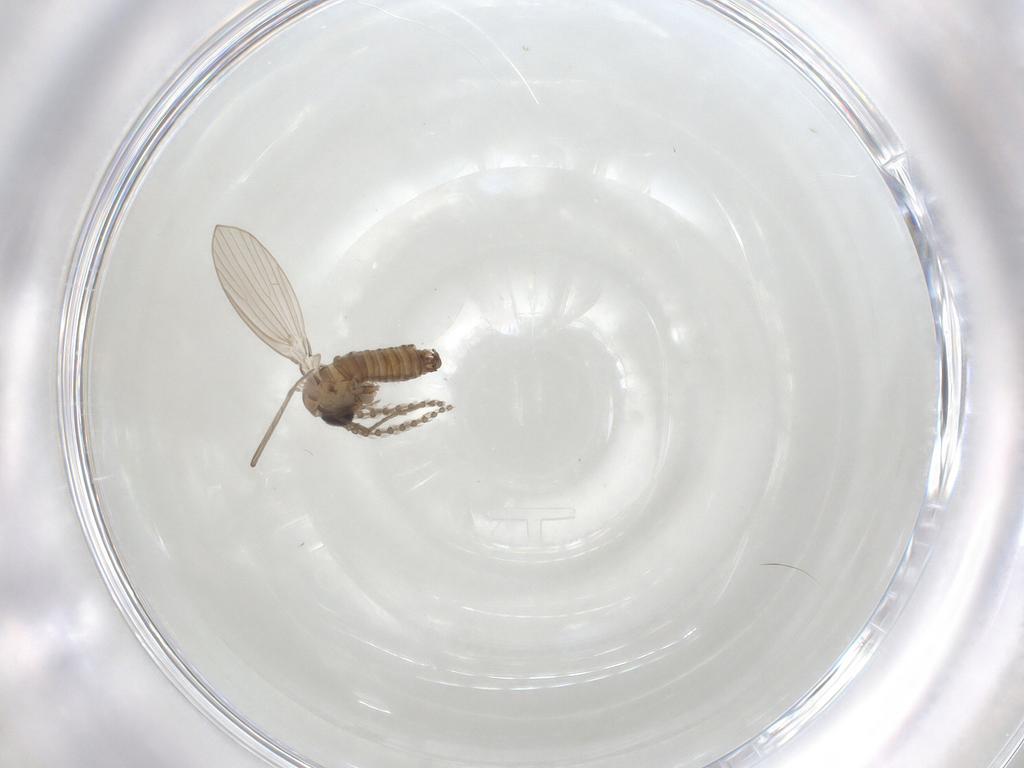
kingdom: Animalia
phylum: Arthropoda
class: Insecta
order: Diptera
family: Psychodidae
